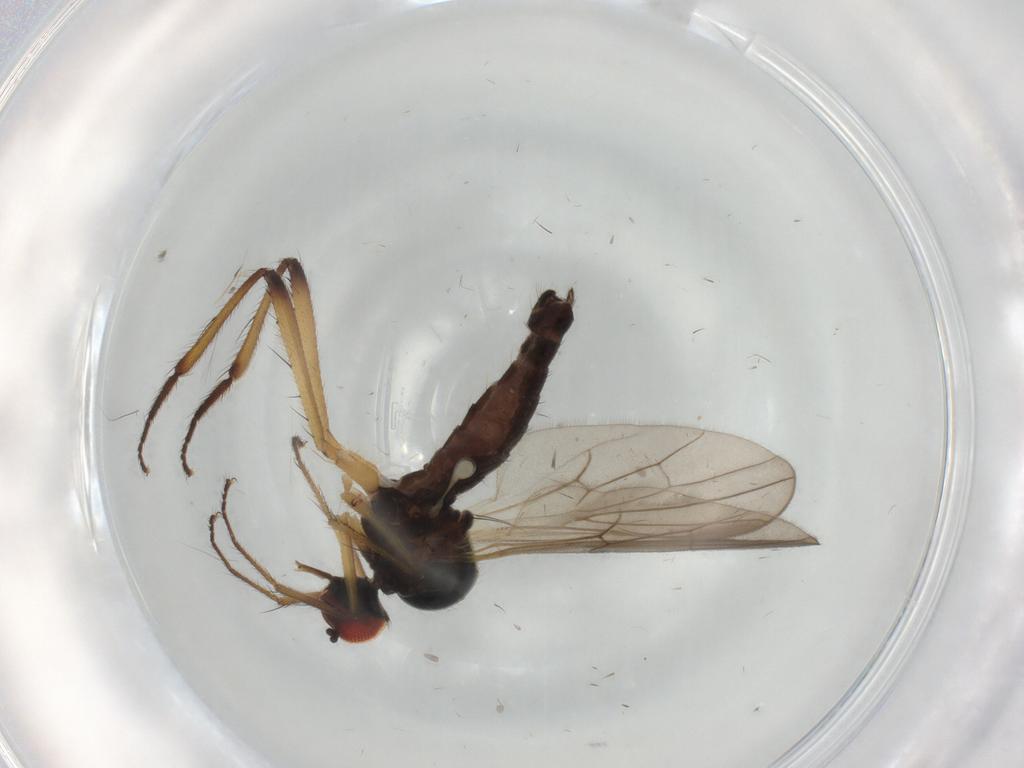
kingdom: Animalia
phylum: Arthropoda
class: Insecta
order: Diptera
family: Hybotidae
